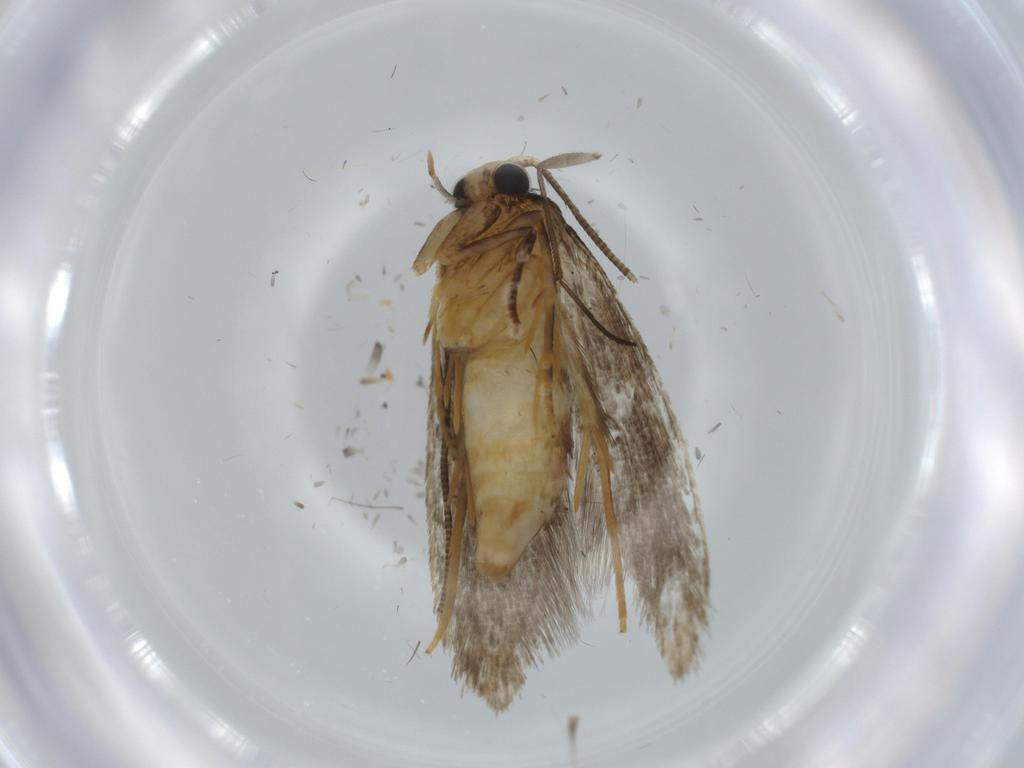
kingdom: Animalia
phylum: Arthropoda
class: Insecta
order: Lepidoptera
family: Tineidae
